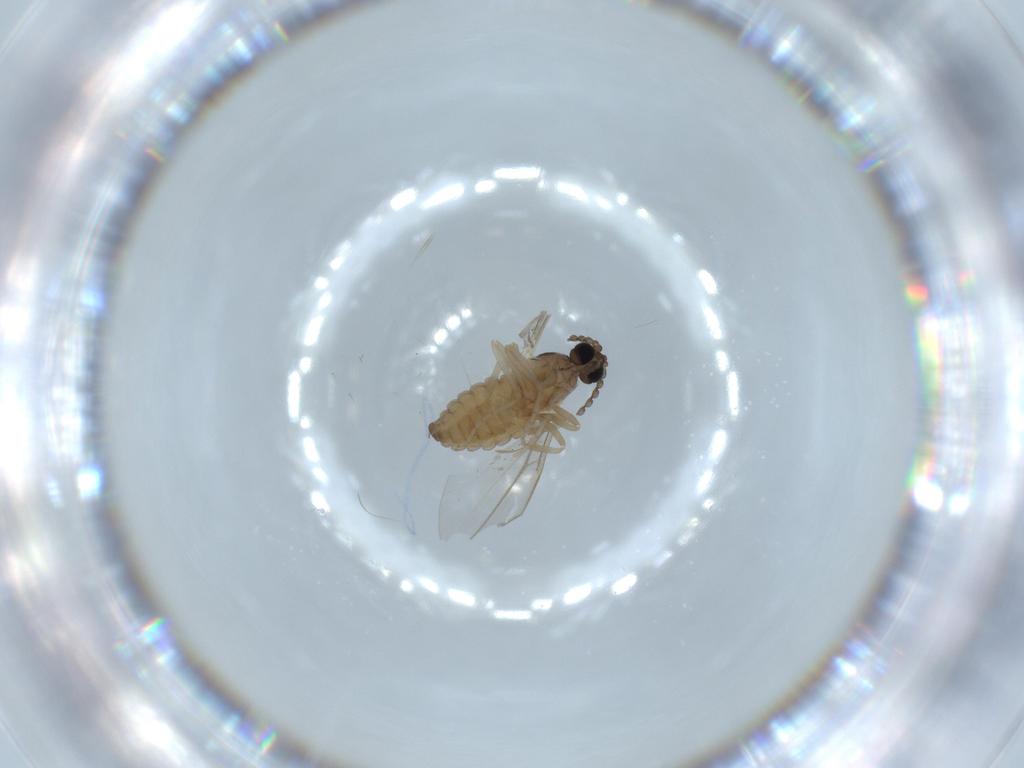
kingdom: Animalia
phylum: Arthropoda
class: Insecta
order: Diptera
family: Cecidomyiidae
